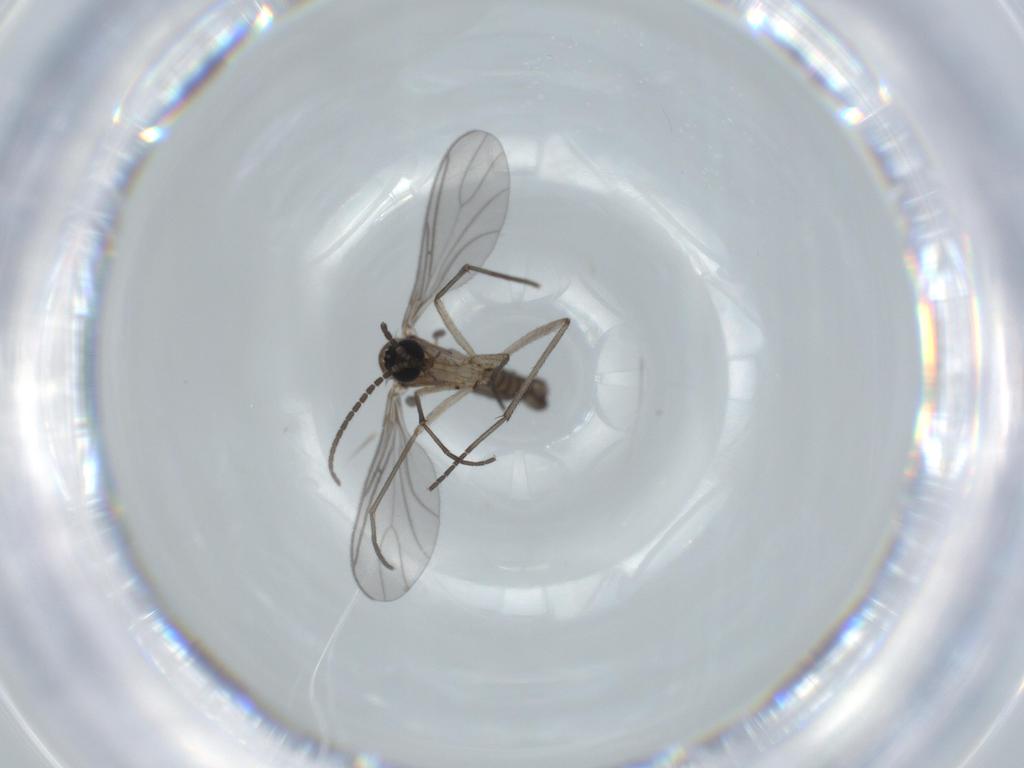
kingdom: Animalia
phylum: Arthropoda
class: Insecta
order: Diptera
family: Sciaridae
